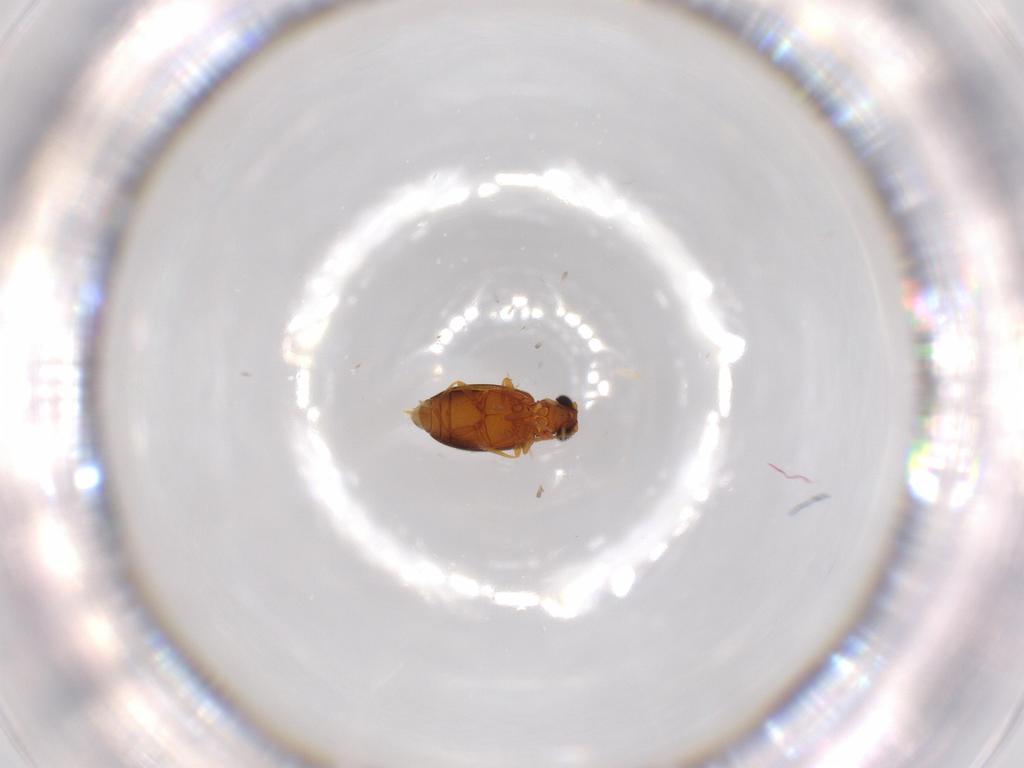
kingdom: Animalia
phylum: Arthropoda
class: Insecta
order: Coleoptera
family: Aderidae
